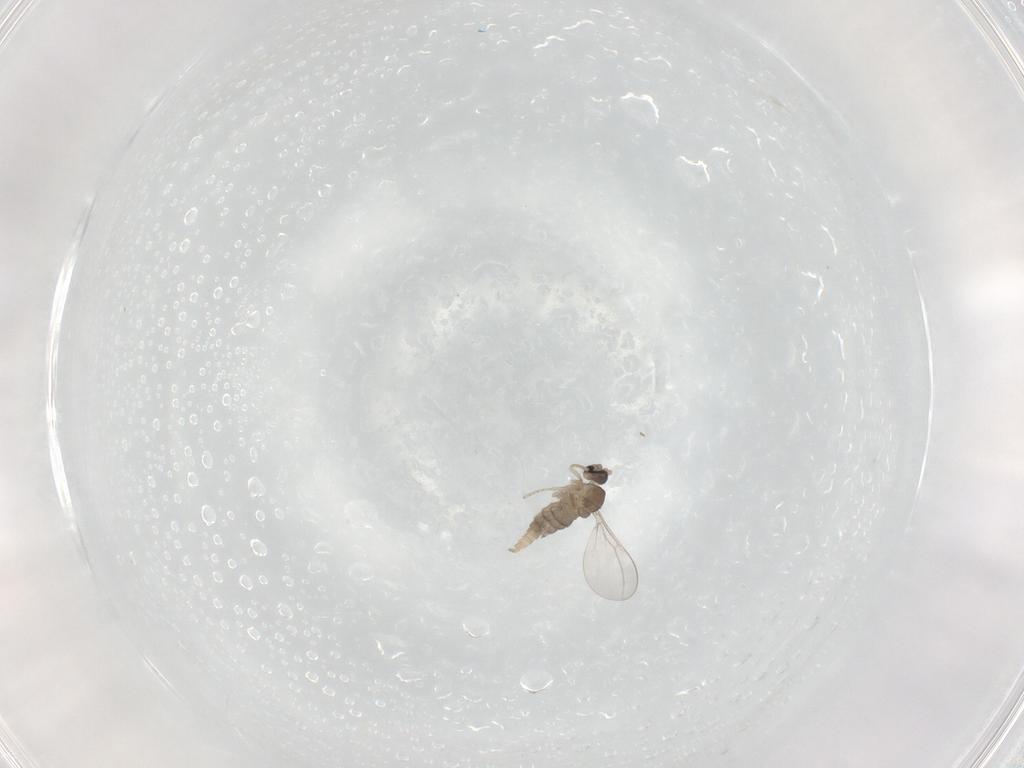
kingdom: Animalia
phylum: Arthropoda
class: Insecta
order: Diptera
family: Cecidomyiidae
